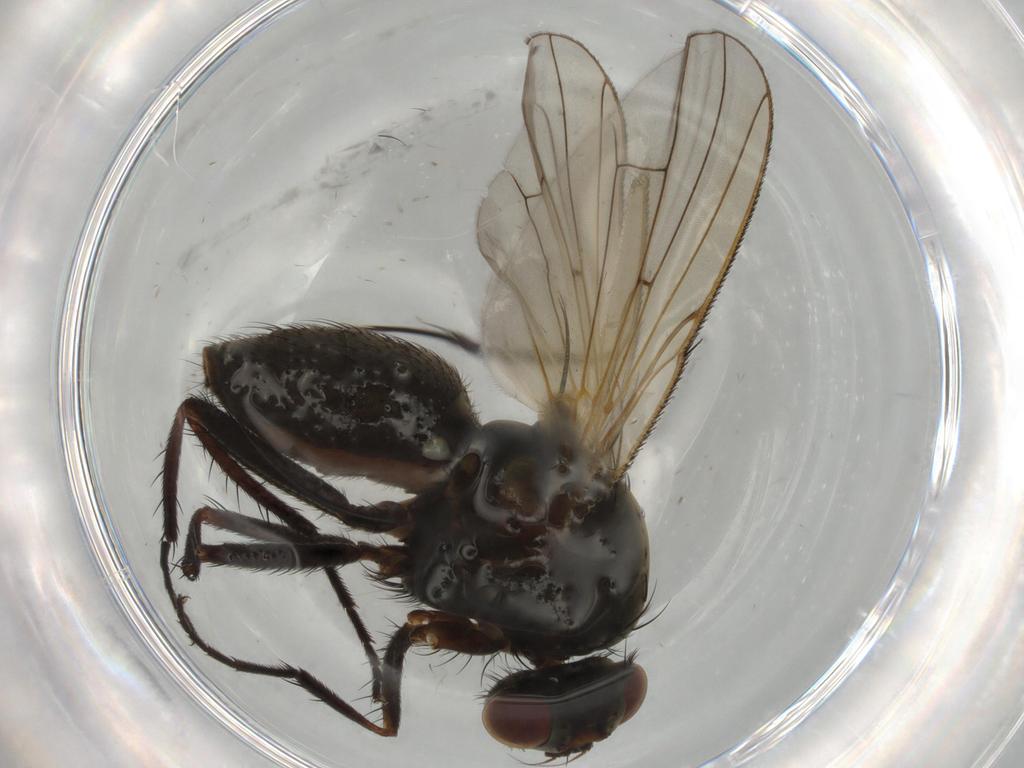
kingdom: Animalia
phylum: Arthropoda
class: Insecta
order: Diptera
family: Anthomyiidae
